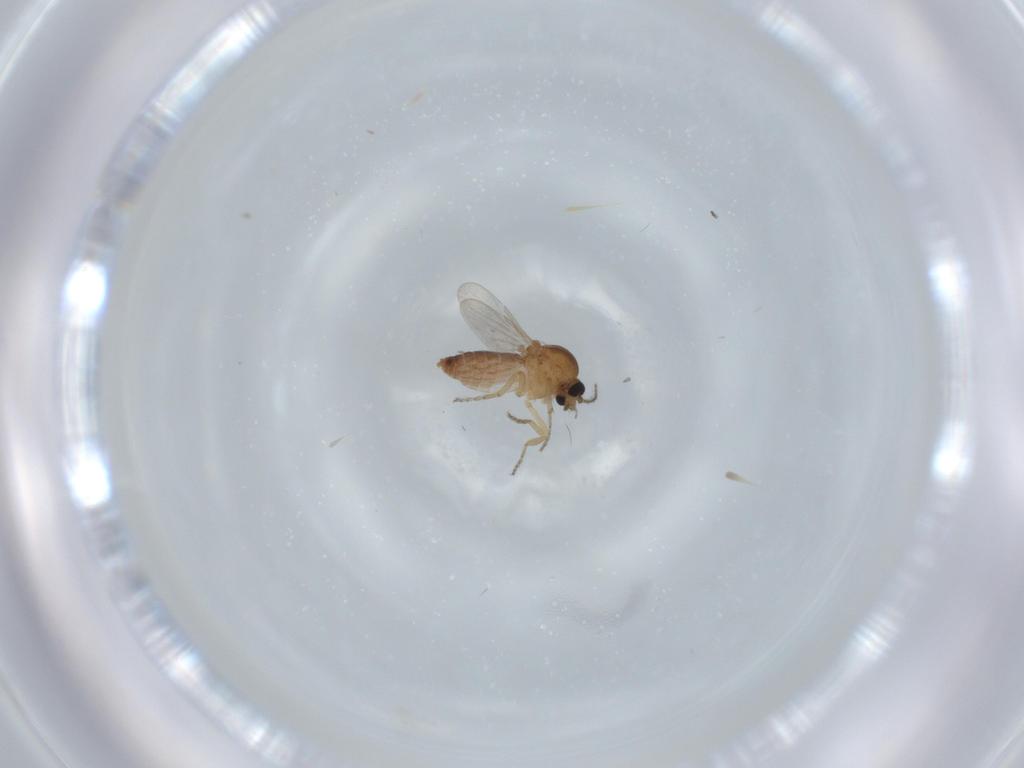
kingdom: Animalia
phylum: Arthropoda
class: Insecta
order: Diptera
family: Ceratopogonidae
